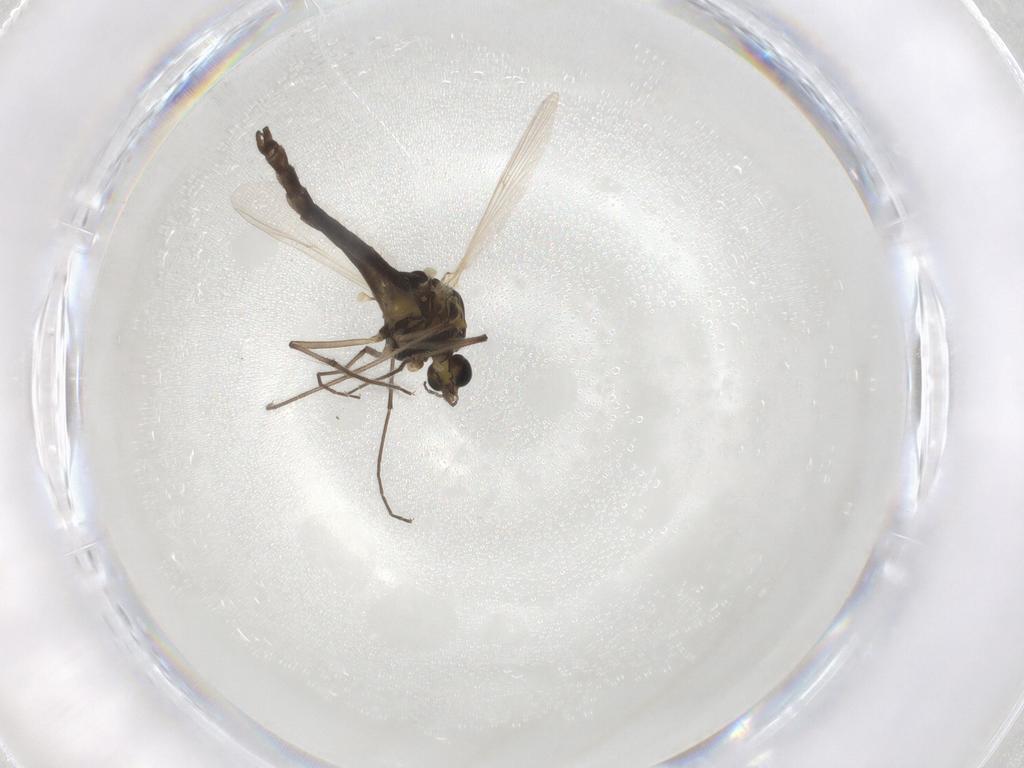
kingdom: Animalia
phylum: Arthropoda
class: Insecta
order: Diptera
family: Chironomidae
